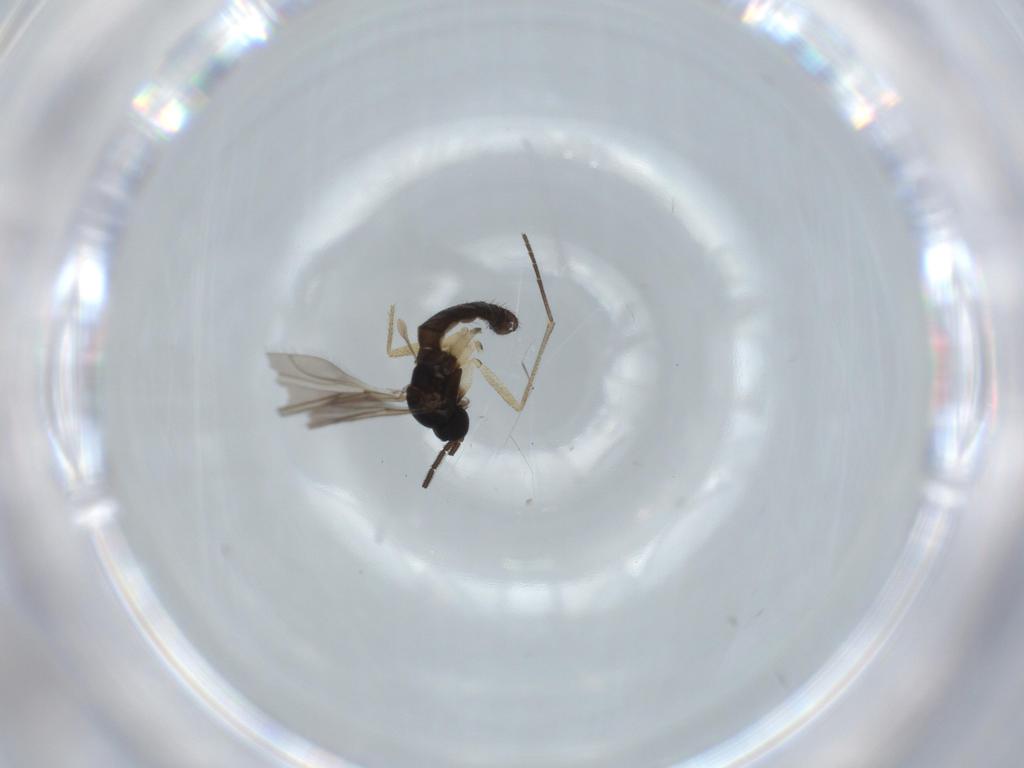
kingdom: Animalia
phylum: Arthropoda
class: Insecta
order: Diptera
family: Sciaridae
